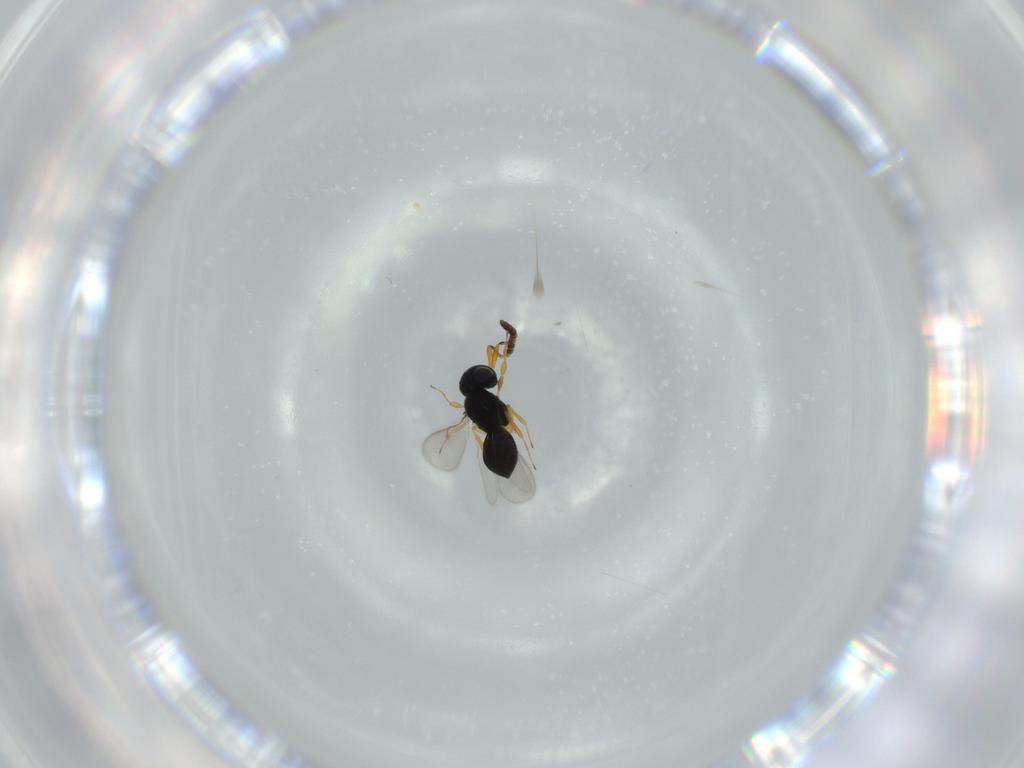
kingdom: Animalia
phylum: Arthropoda
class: Insecta
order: Hymenoptera
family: Scelionidae
